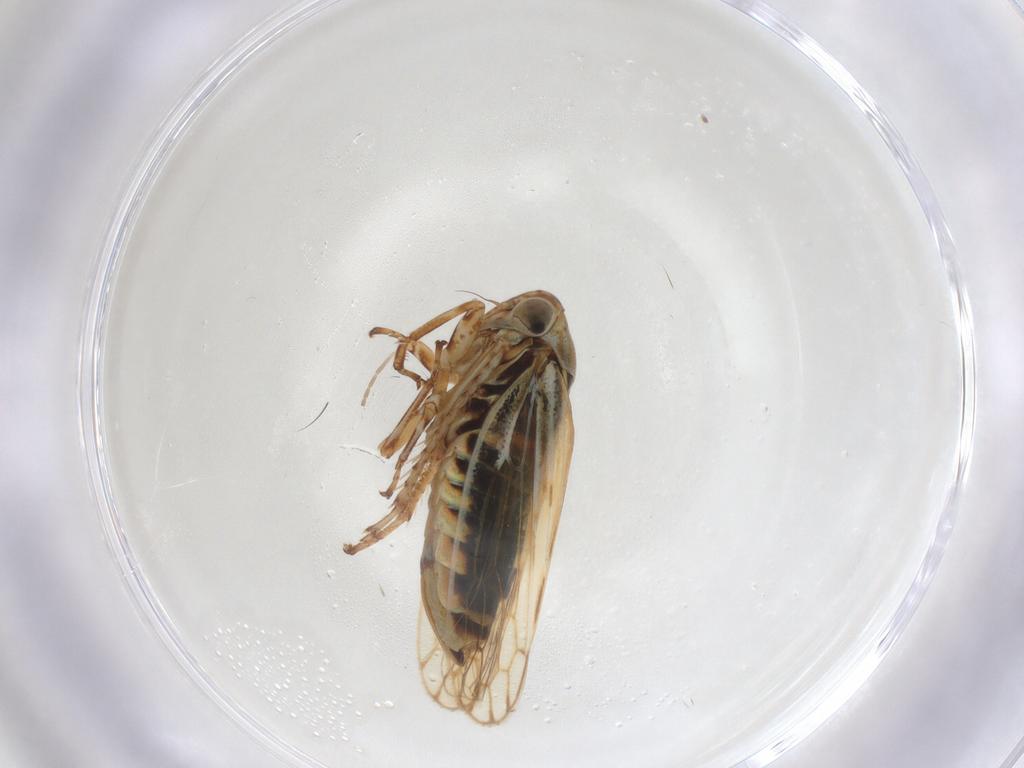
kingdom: Animalia
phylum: Arthropoda
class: Insecta
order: Hemiptera
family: Cicadellidae
